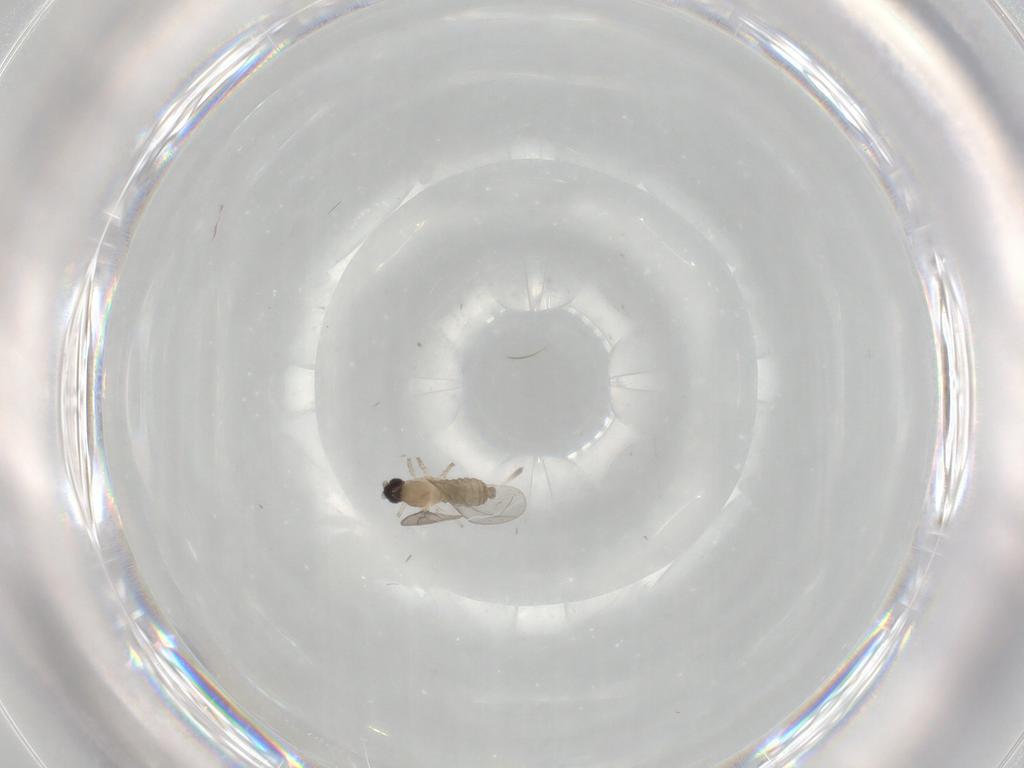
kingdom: Animalia
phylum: Arthropoda
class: Insecta
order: Diptera
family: Cecidomyiidae
